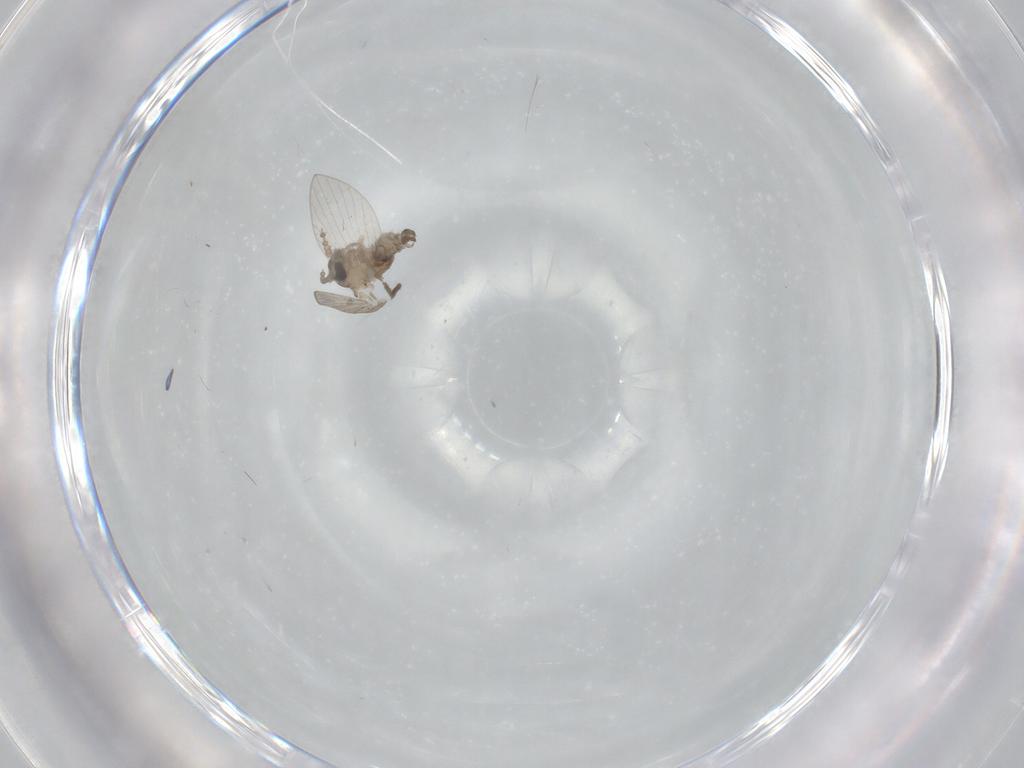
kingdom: Animalia
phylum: Arthropoda
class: Insecta
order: Diptera
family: Psychodidae
